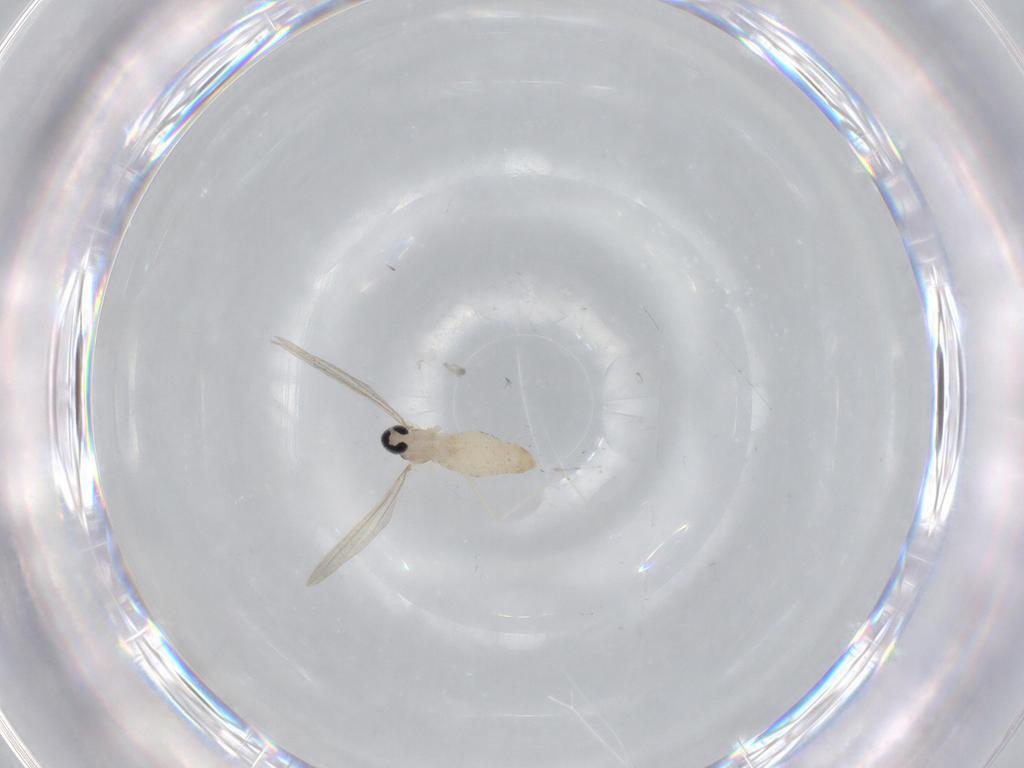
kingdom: Animalia
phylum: Arthropoda
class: Insecta
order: Diptera
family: Cecidomyiidae
